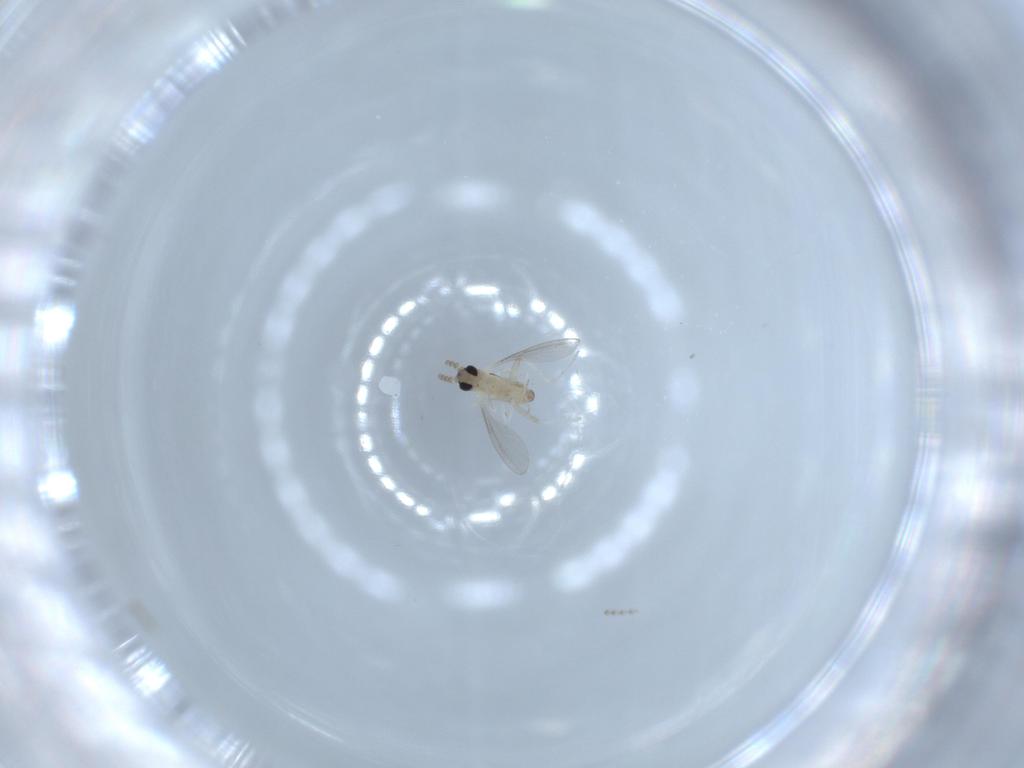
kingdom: Animalia
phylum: Arthropoda
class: Insecta
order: Diptera
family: Cecidomyiidae
